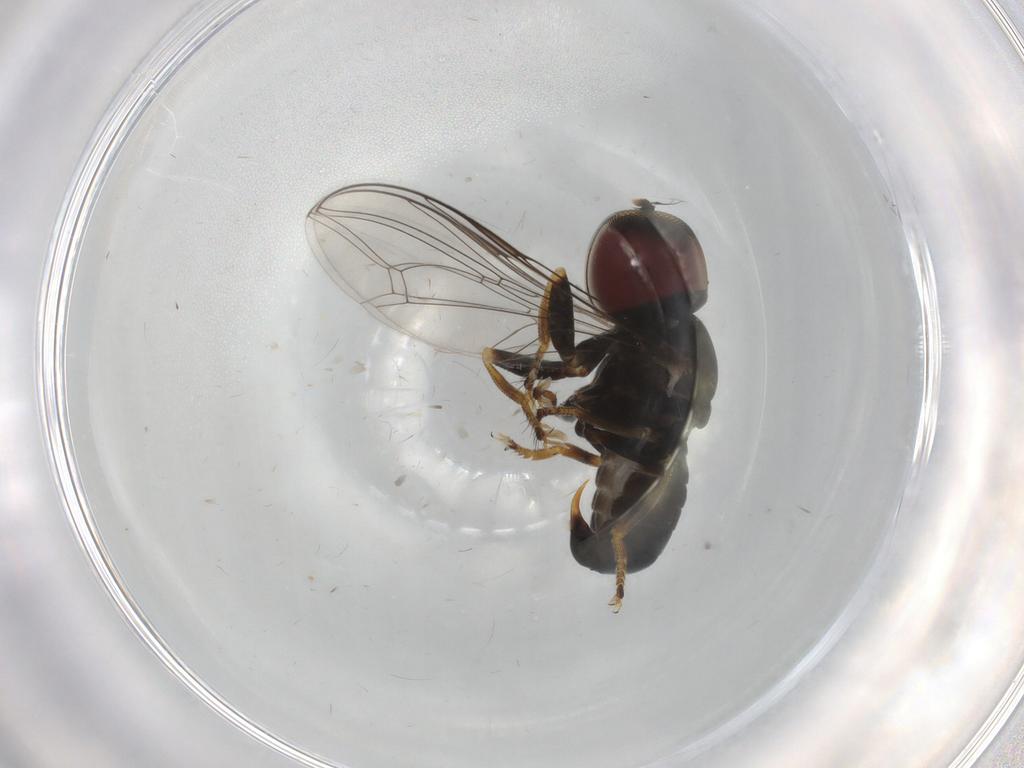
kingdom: Animalia
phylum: Arthropoda
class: Insecta
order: Diptera
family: Pipunculidae
